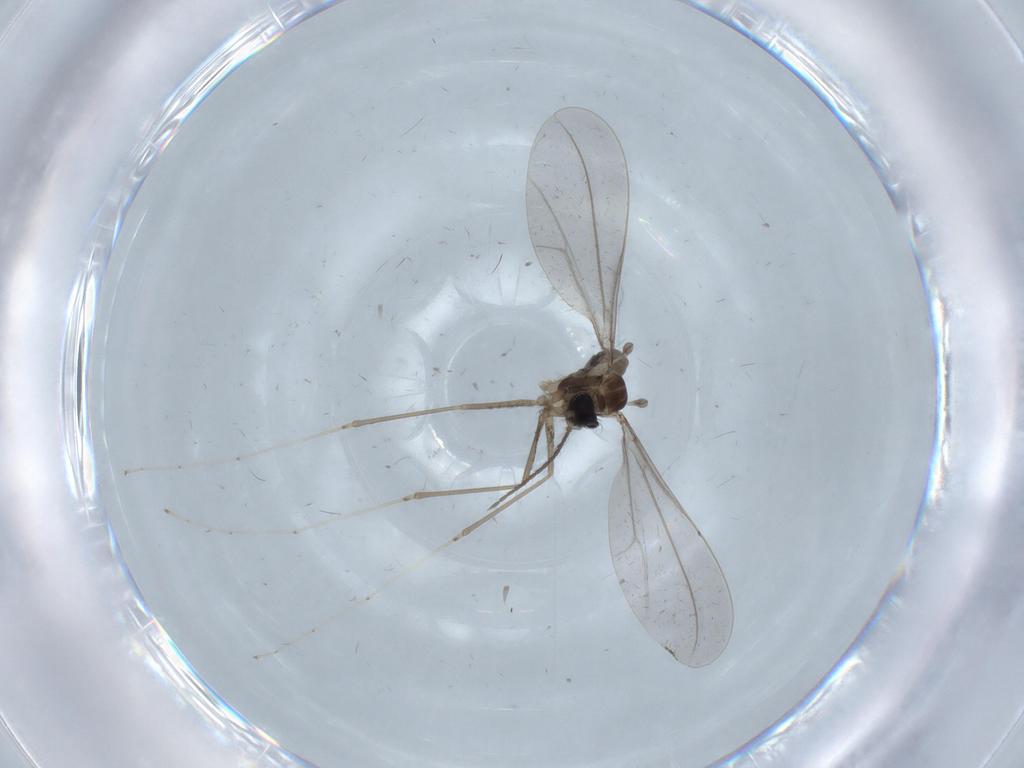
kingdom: Animalia
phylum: Arthropoda
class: Insecta
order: Diptera
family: Cecidomyiidae
